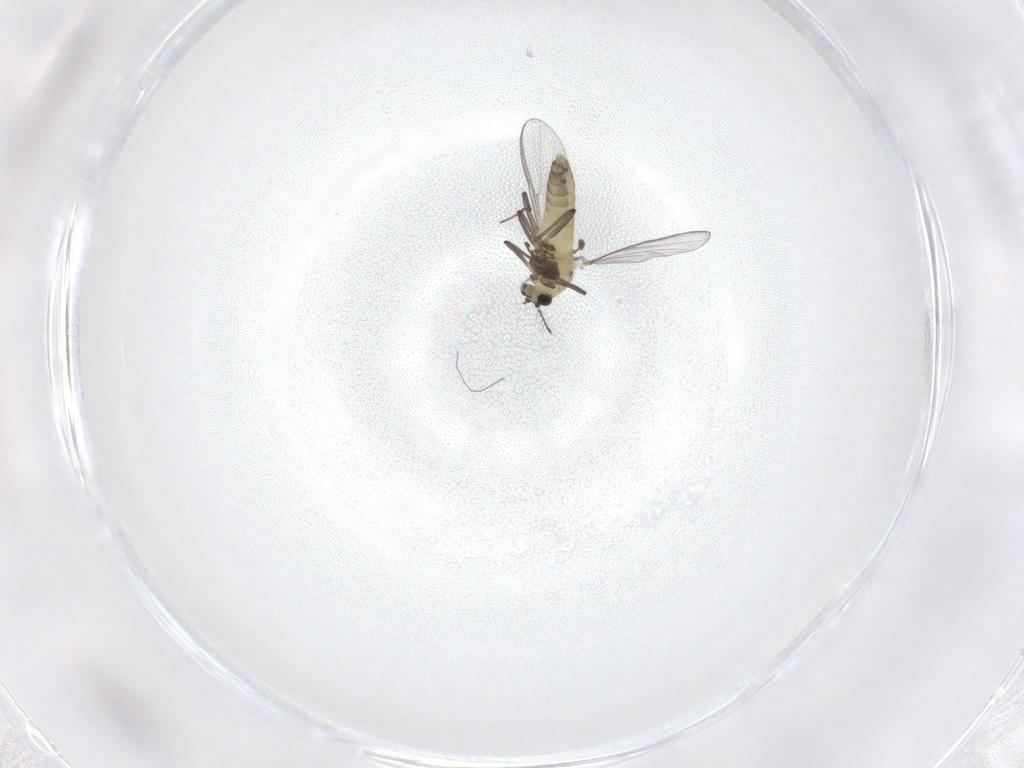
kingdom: Animalia
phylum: Arthropoda
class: Insecta
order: Diptera
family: Chironomidae
